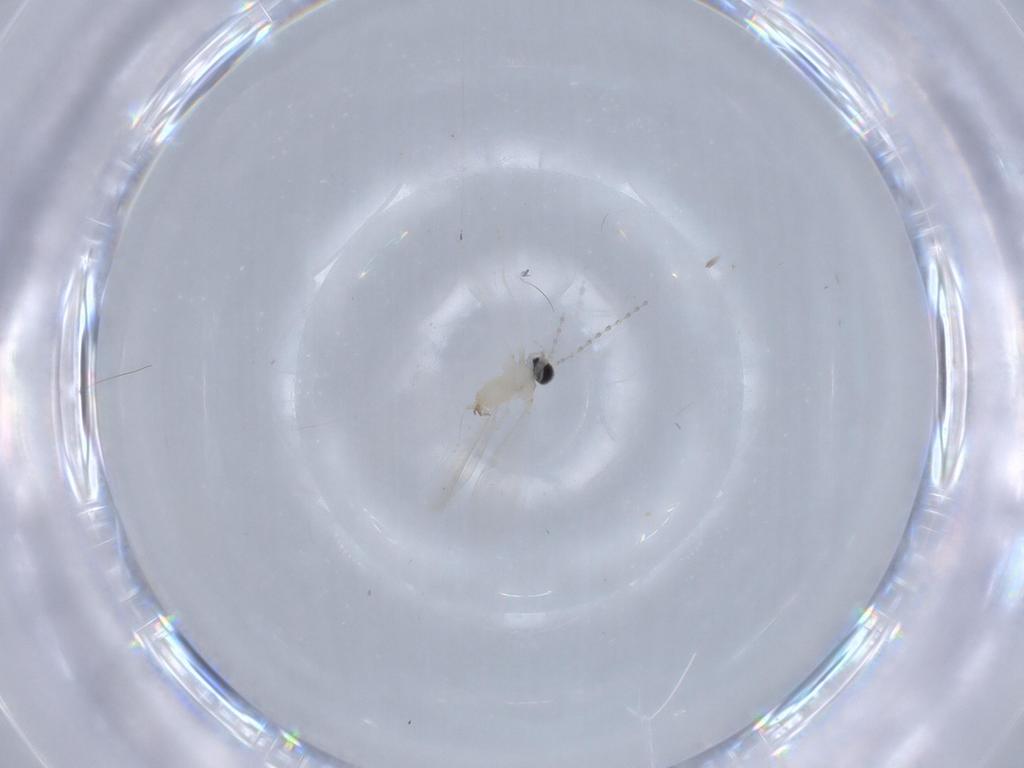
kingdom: Animalia
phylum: Arthropoda
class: Insecta
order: Diptera
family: Cecidomyiidae
